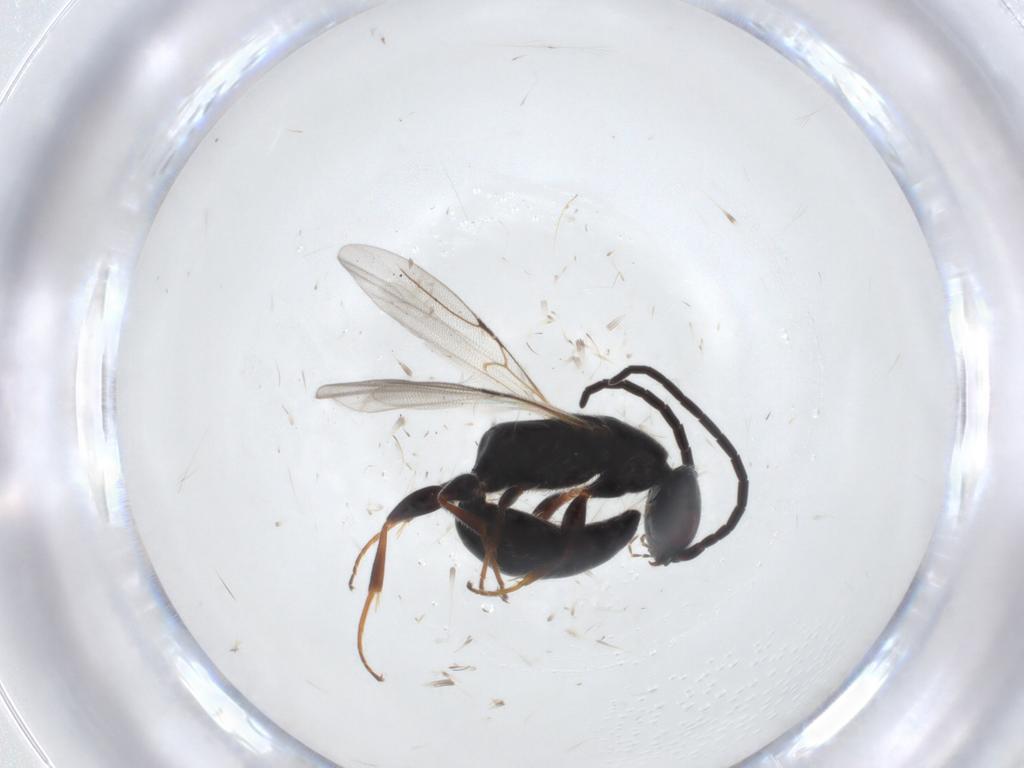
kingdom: Animalia
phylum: Arthropoda
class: Insecta
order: Hymenoptera
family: Bethylidae
